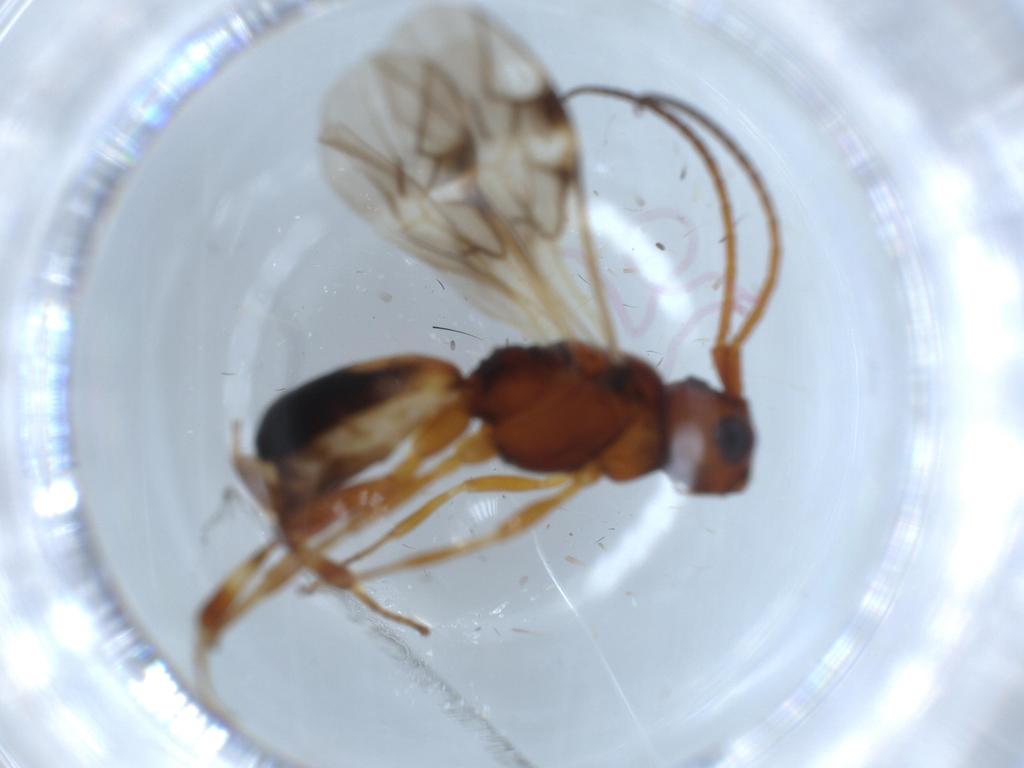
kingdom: Animalia
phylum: Arthropoda
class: Insecta
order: Hymenoptera
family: Braconidae
